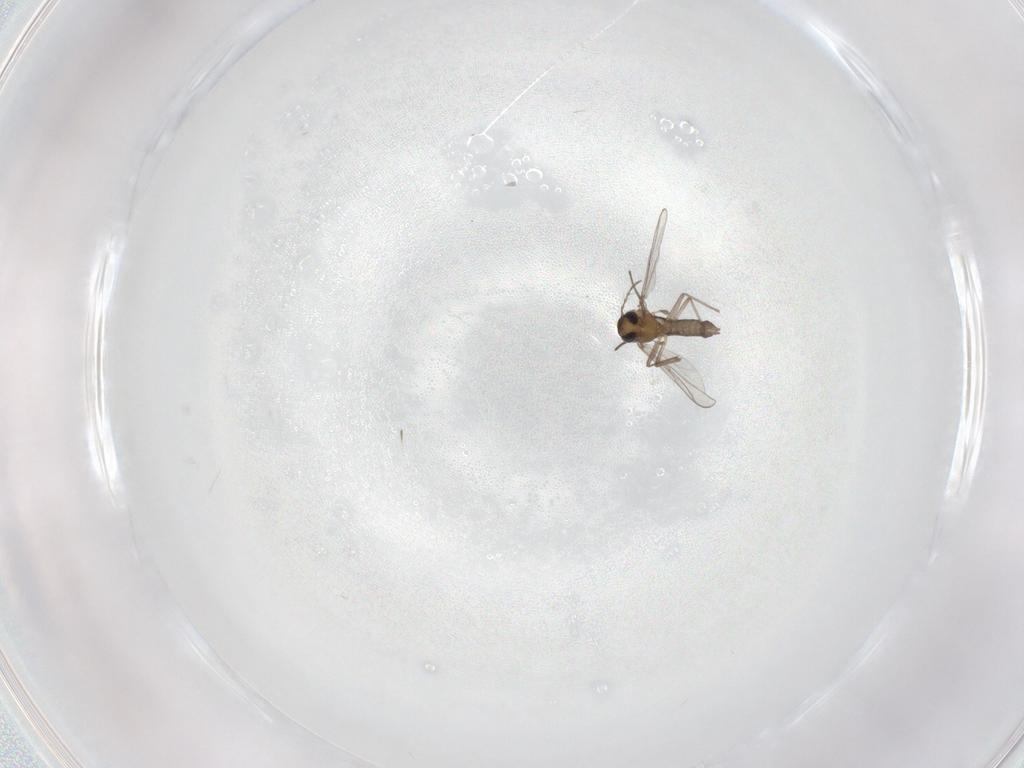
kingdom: Animalia
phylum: Arthropoda
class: Insecta
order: Diptera
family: Chironomidae
